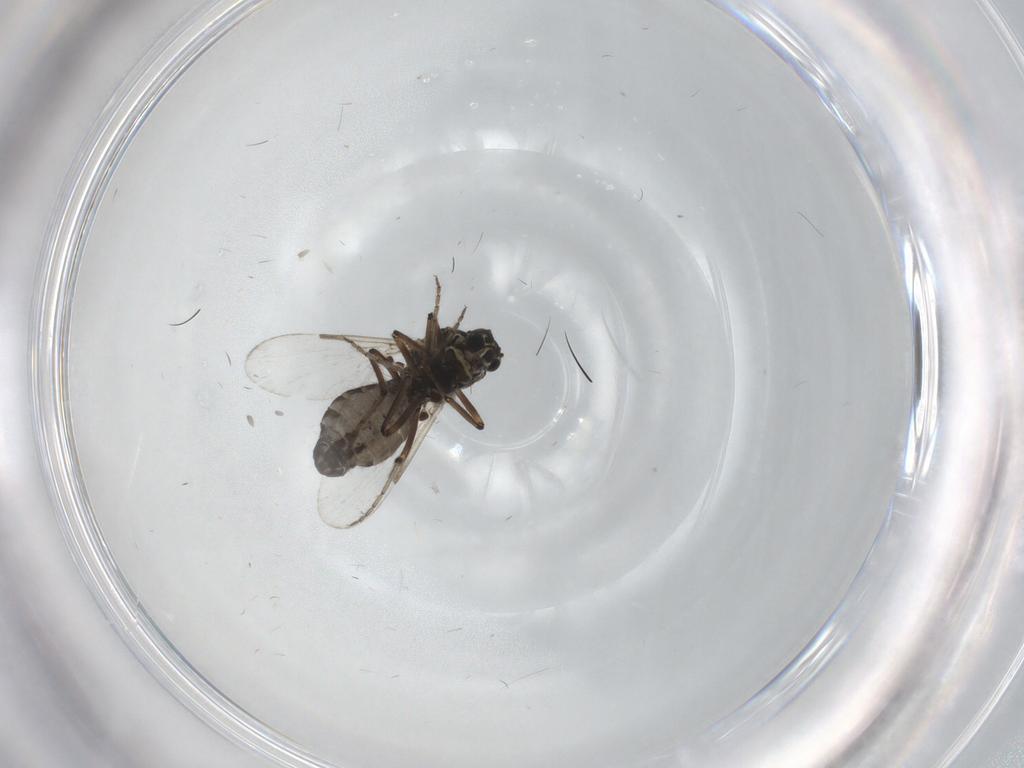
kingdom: Animalia
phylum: Arthropoda
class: Insecta
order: Diptera
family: Ceratopogonidae
